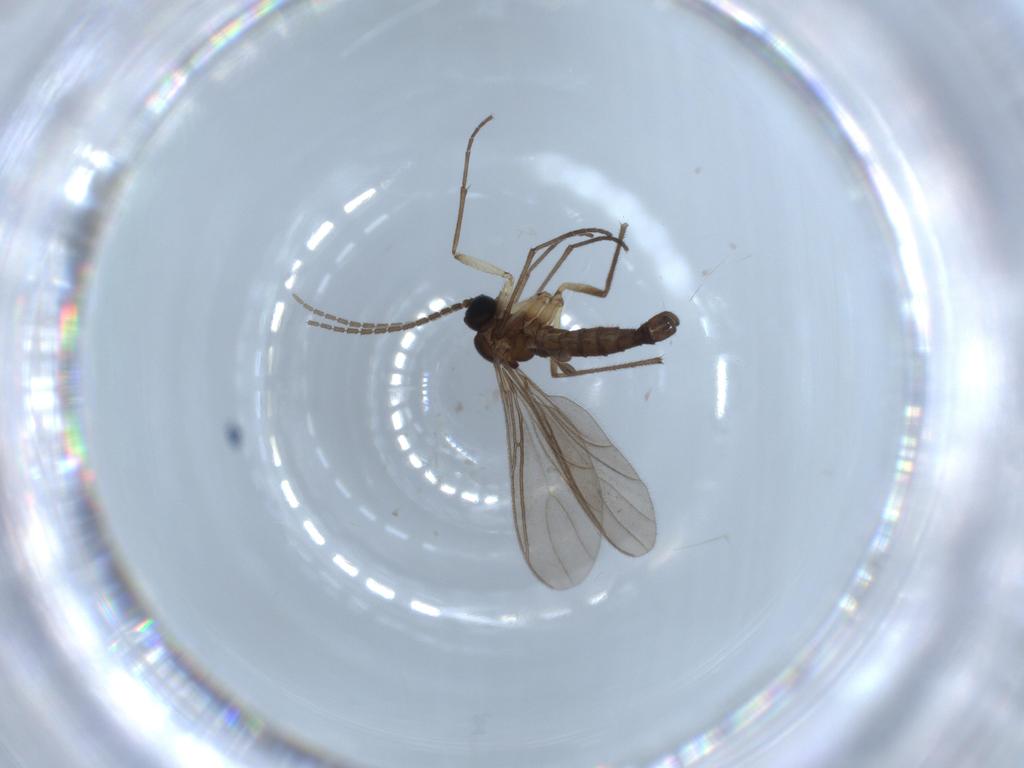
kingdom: Animalia
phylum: Arthropoda
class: Insecta
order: Diptera
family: Sciaridae
